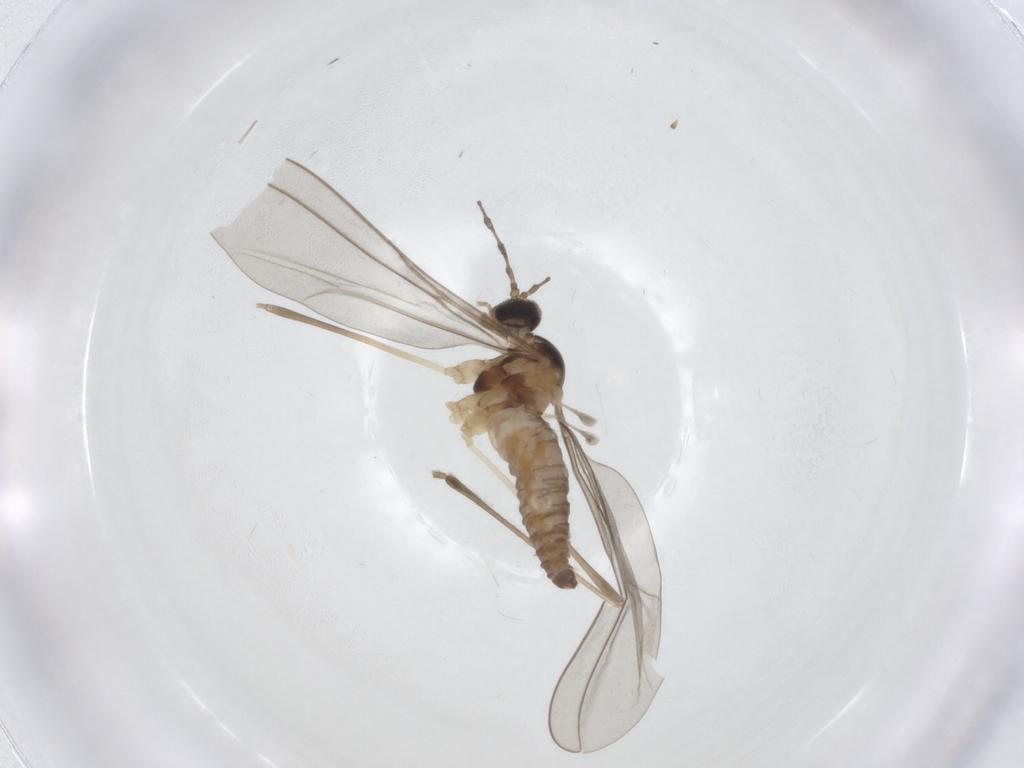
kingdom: Animalia
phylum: Arthropoda
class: Insecta
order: Diptera
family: Cecidomyiidae
